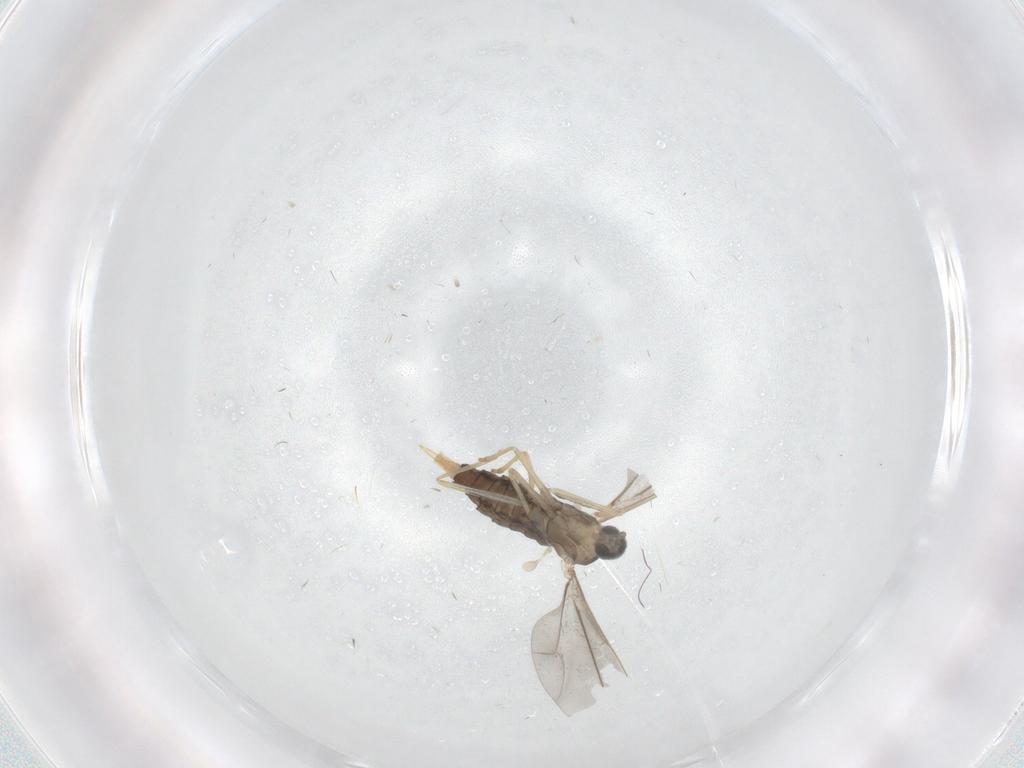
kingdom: Animalia
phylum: Arthropoda
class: Insecta
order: Diptera
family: Cecidomyiidae
